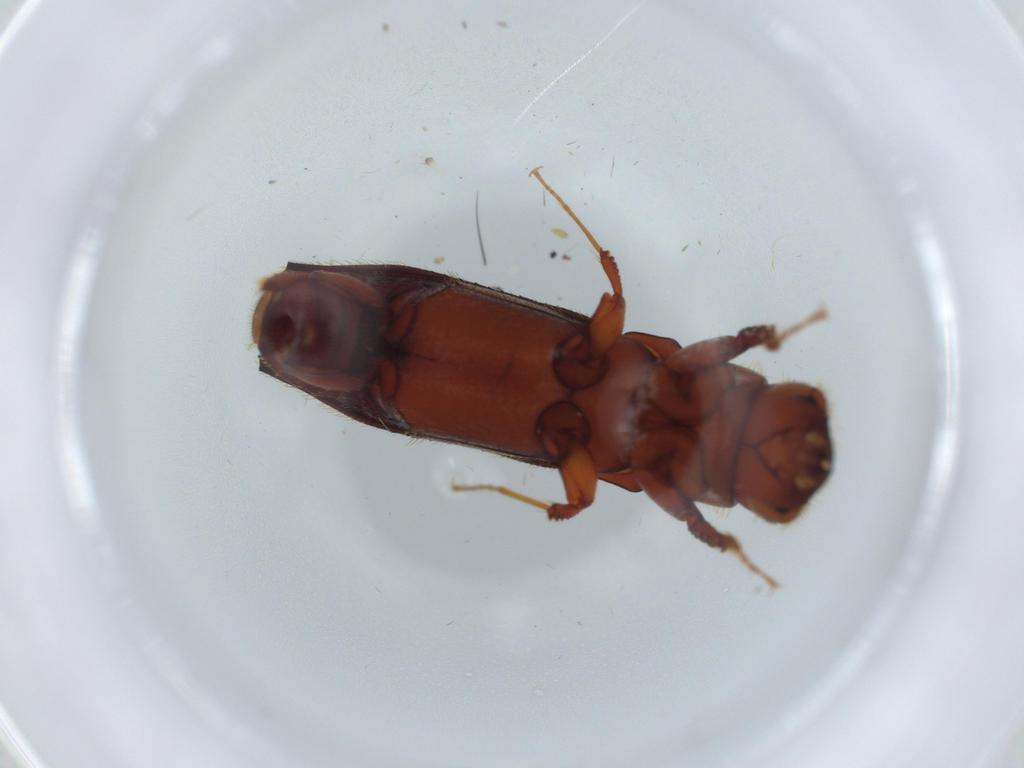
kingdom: Animalia
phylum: Arthropoda
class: Insecta
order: Coleoptera
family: Curculionidae
